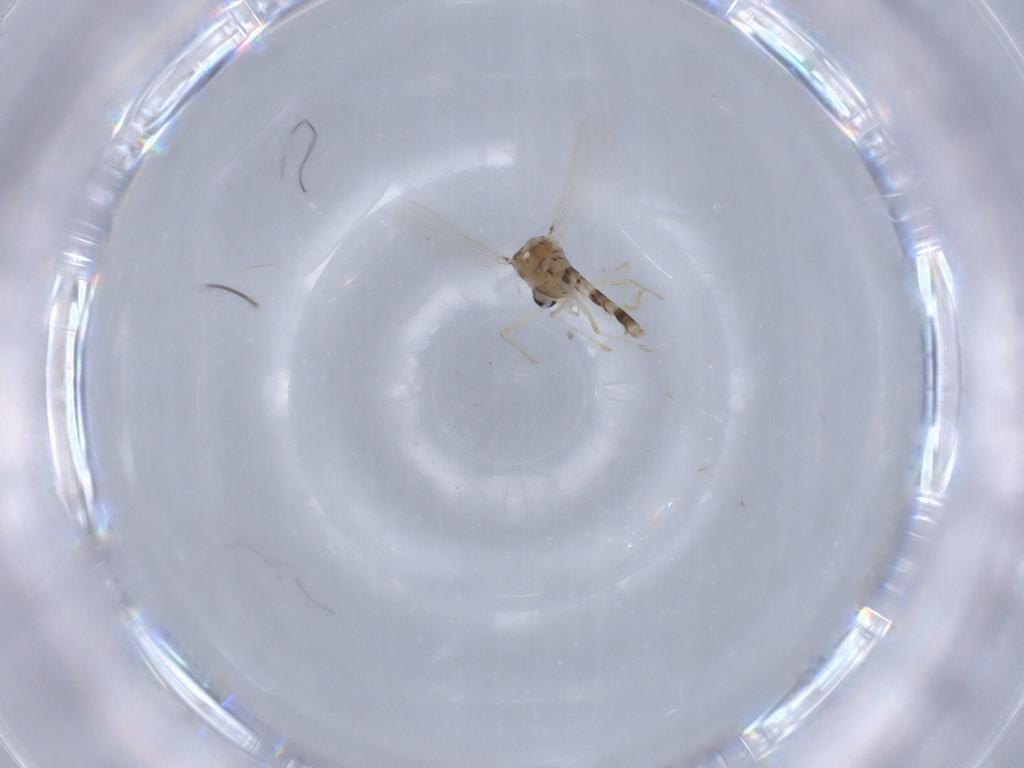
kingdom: Animalia
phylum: Arthropoda
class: Insecta
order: Diptera
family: Chironomidae
